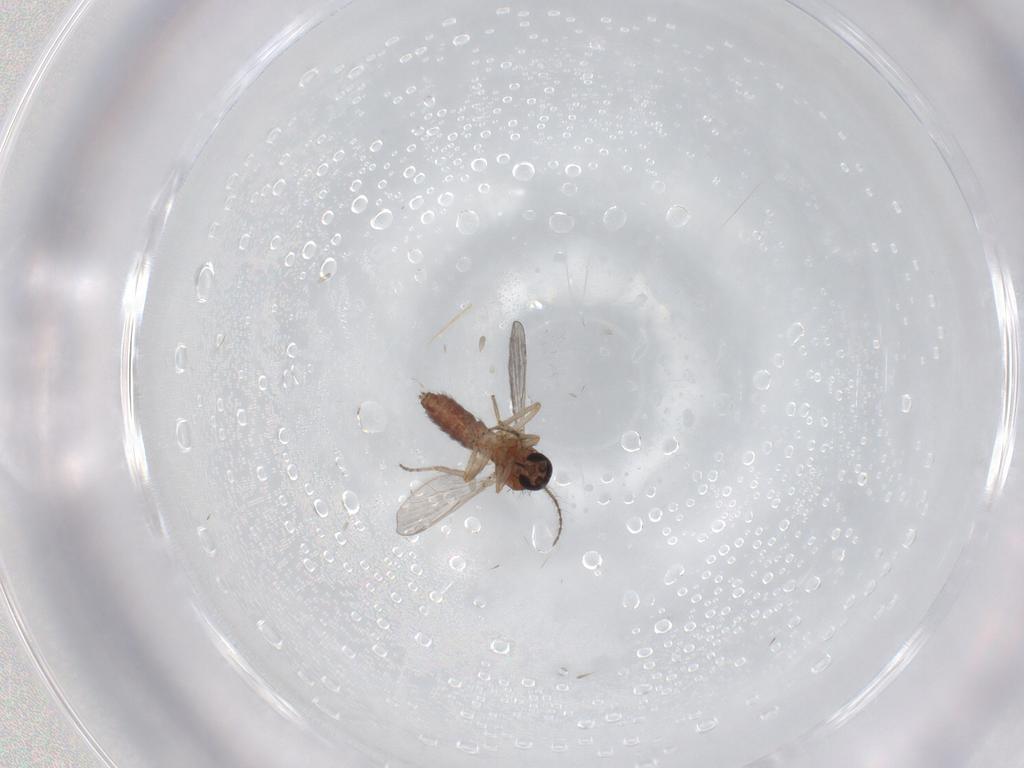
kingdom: Animalia
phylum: Arthropoda
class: Insecta
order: Diptera
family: Ceratopogonidae
